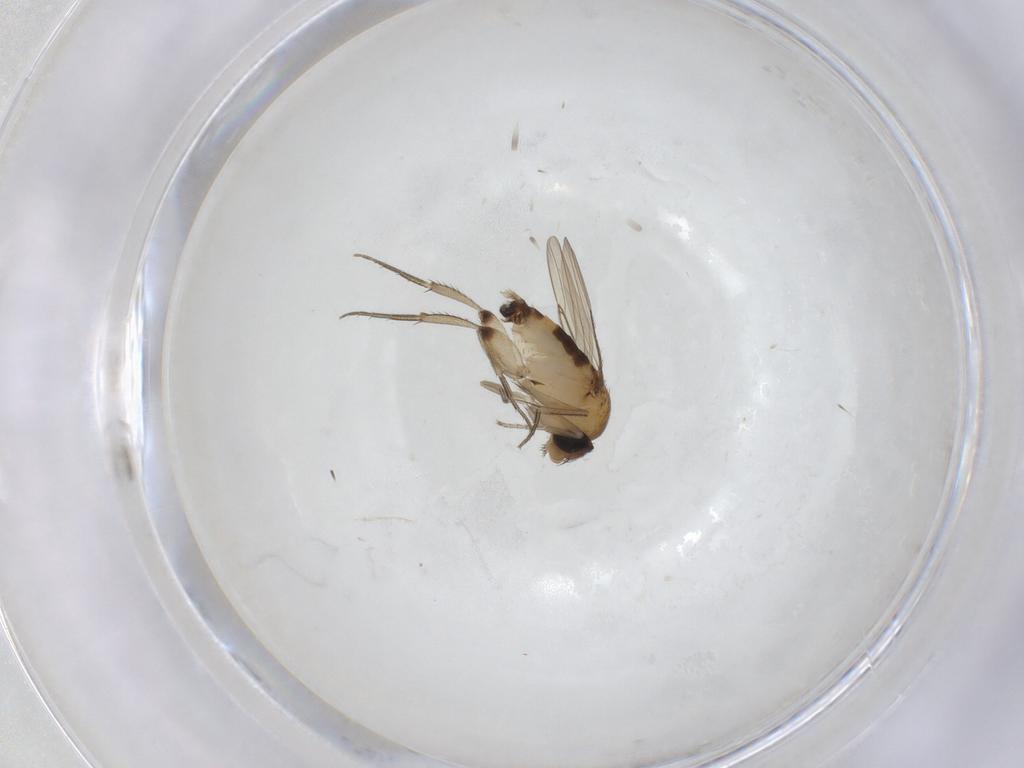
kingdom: Animalia
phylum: Arthropoda
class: Insecta
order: Diptera
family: Phoridae
